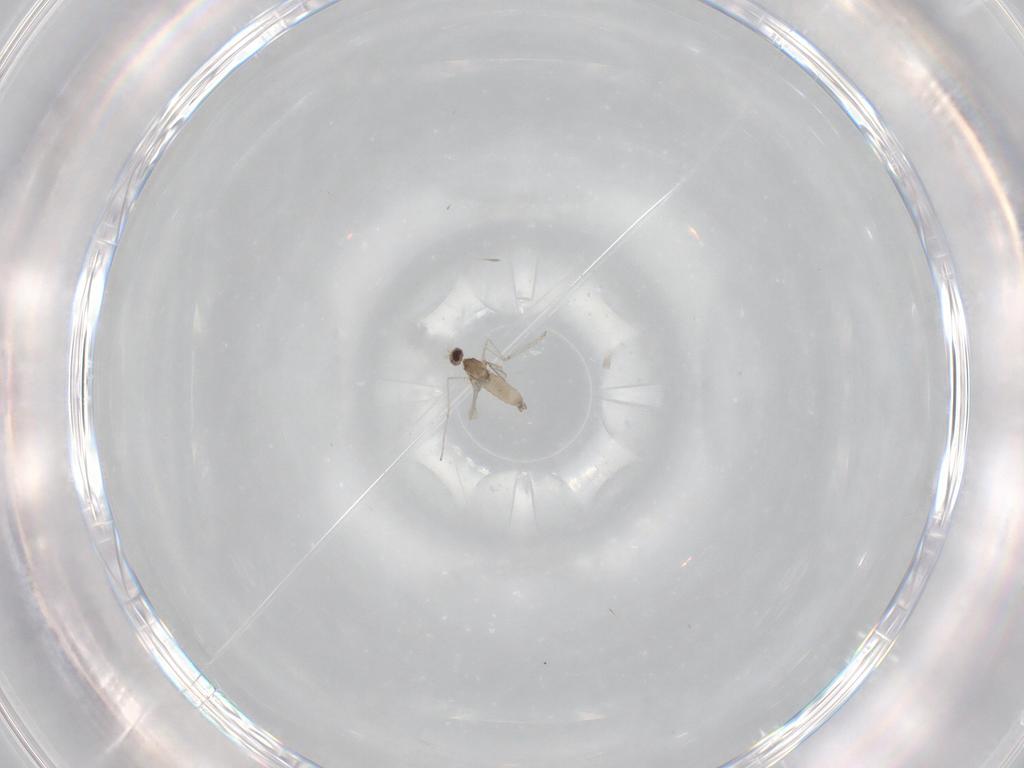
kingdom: Animalia
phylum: Arthropoda
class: Insecta
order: Diptera
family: Cecidomyiidae
